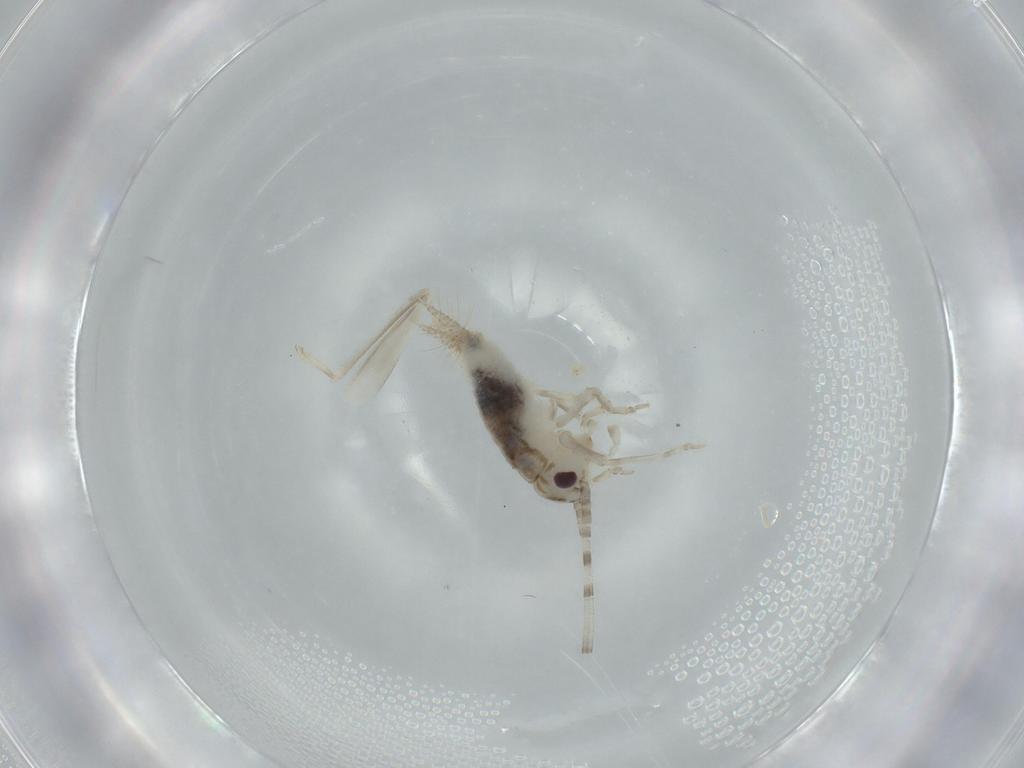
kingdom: Animalia
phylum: Arthropoda
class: Insecta
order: Orthoptera
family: Trigonidiidae
